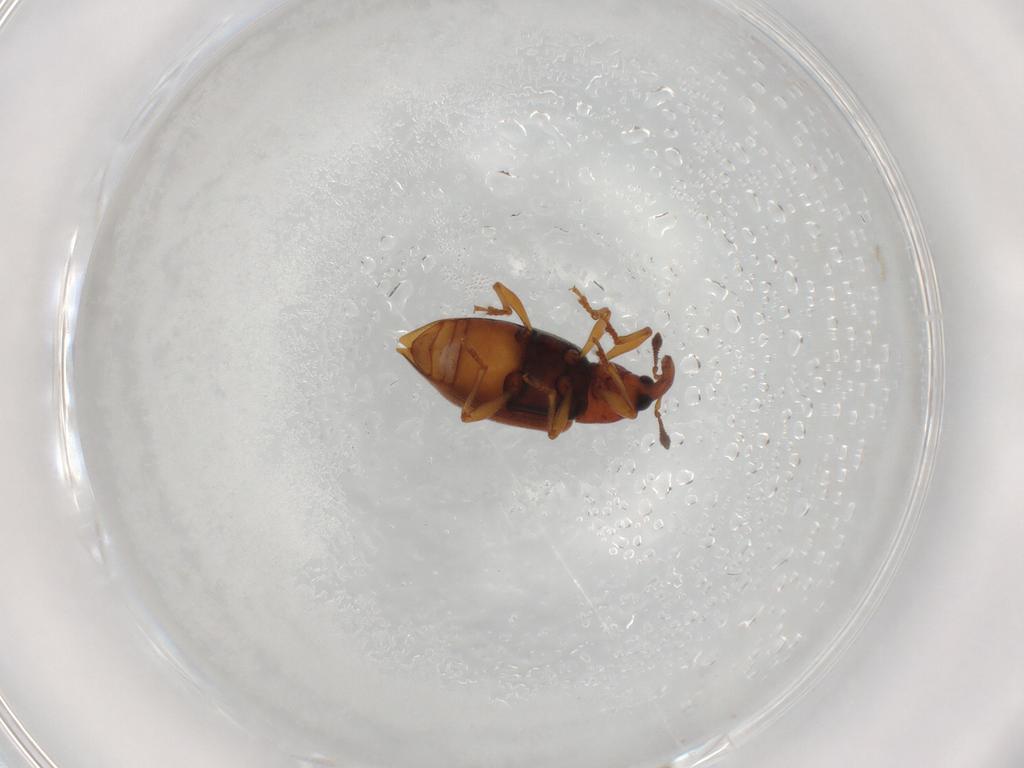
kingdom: Animalia
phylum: Arthropoda
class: Insecta
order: Coleoptera
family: Curculionidae
